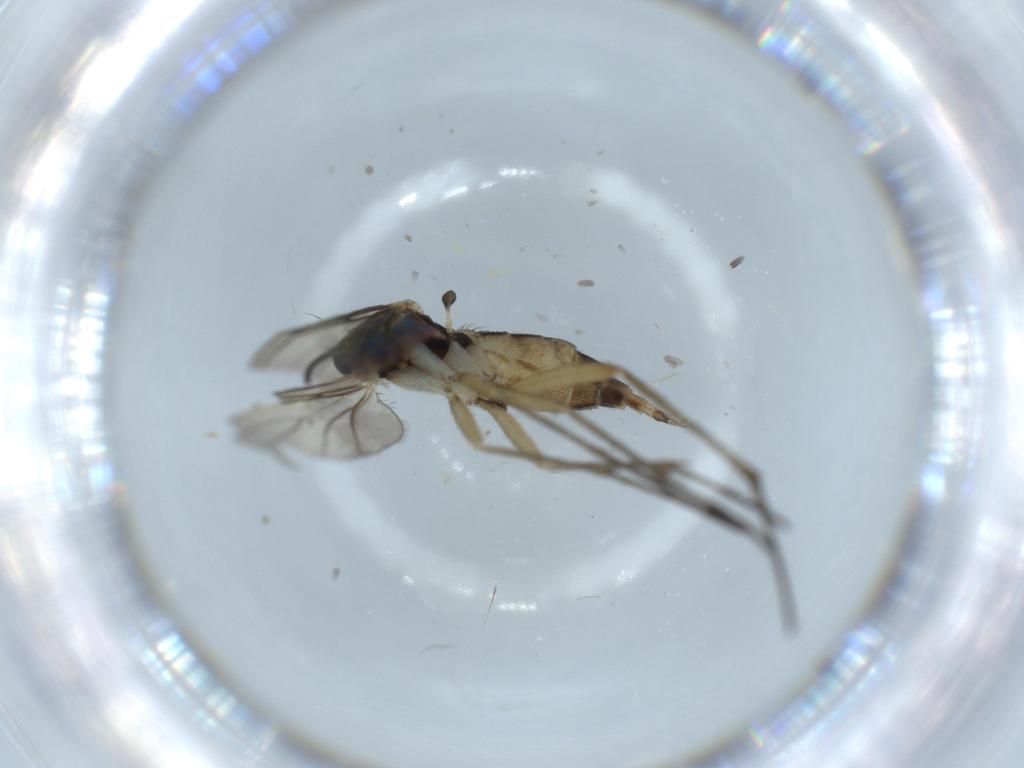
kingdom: Animalia
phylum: Arthropoda
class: Insecta
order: Diptera
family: Sciaridae
